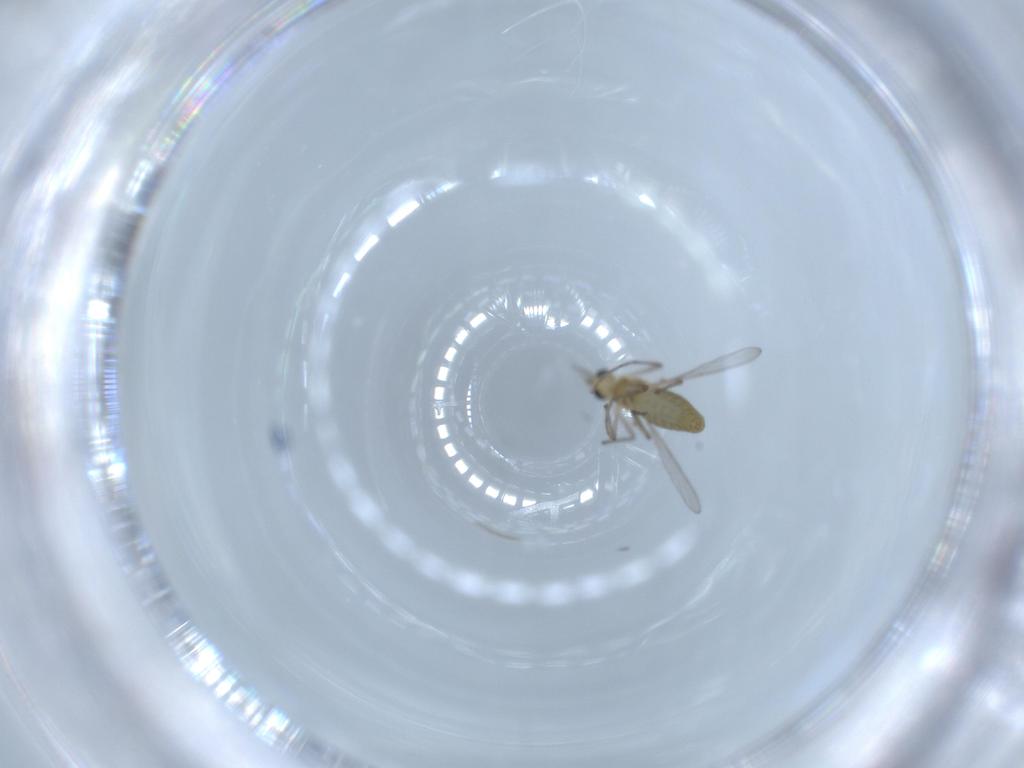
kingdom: Animalia
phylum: Arthropoda
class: Insecta
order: Diptera
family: Chironomidae
